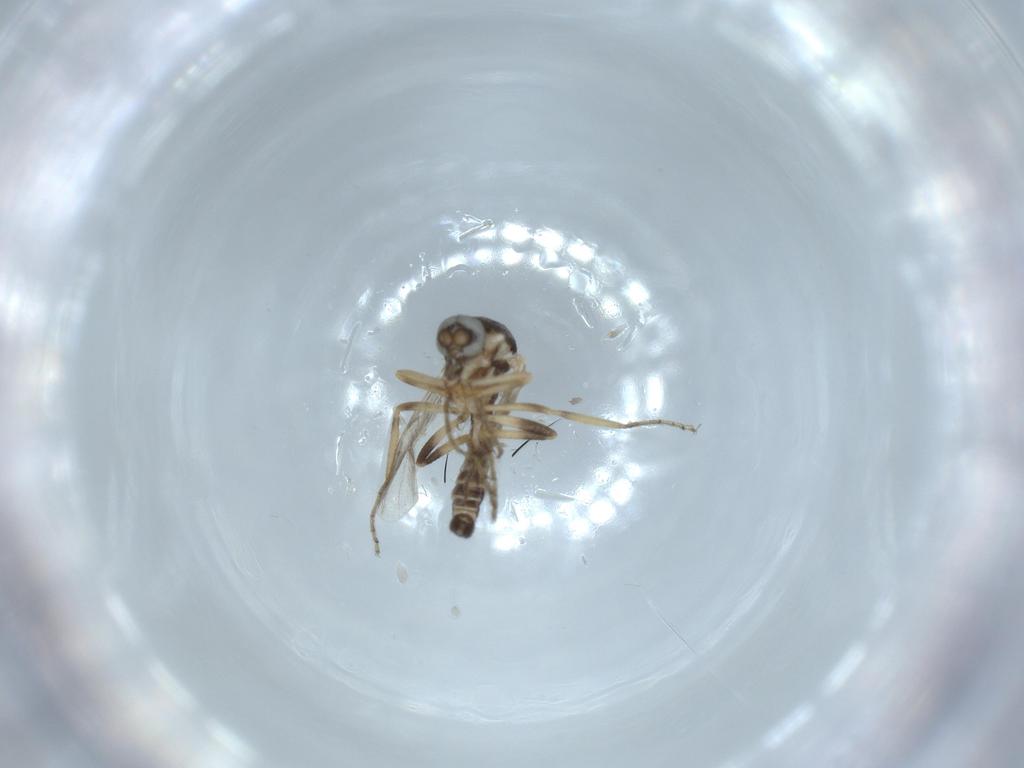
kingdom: Animalia
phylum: Arthropoda
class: Insecta
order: Diptera
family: Ceratopogonidae
